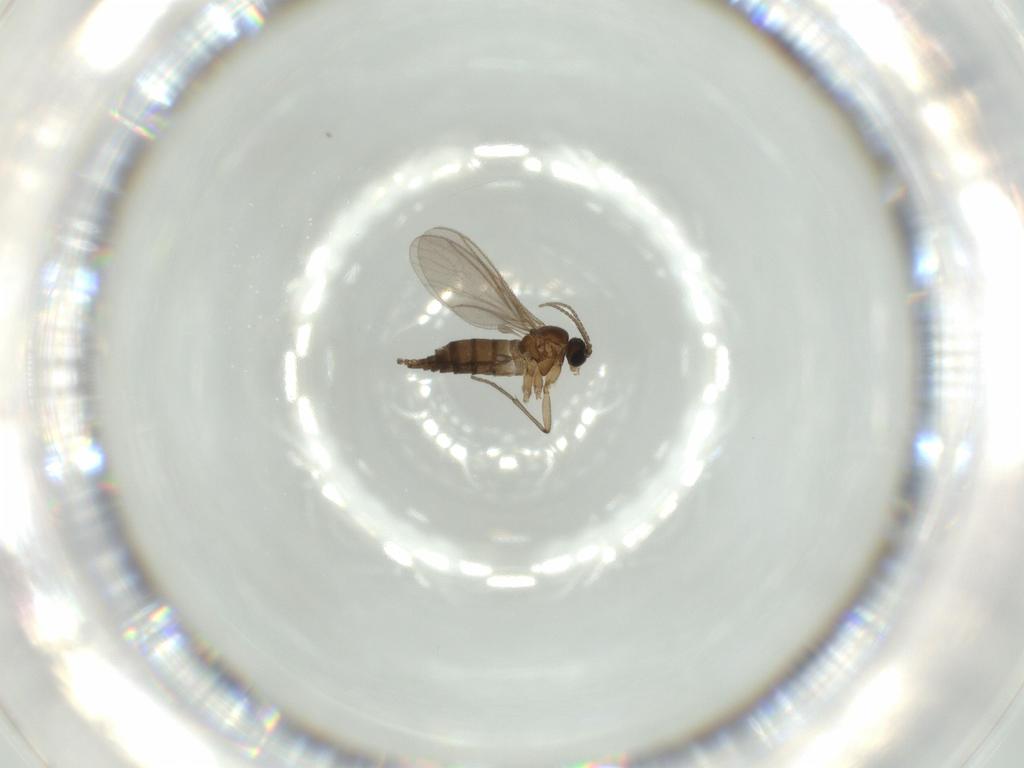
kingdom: Animalia
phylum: Arthropoda
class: Insecta
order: Diptera
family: Sciaridae
